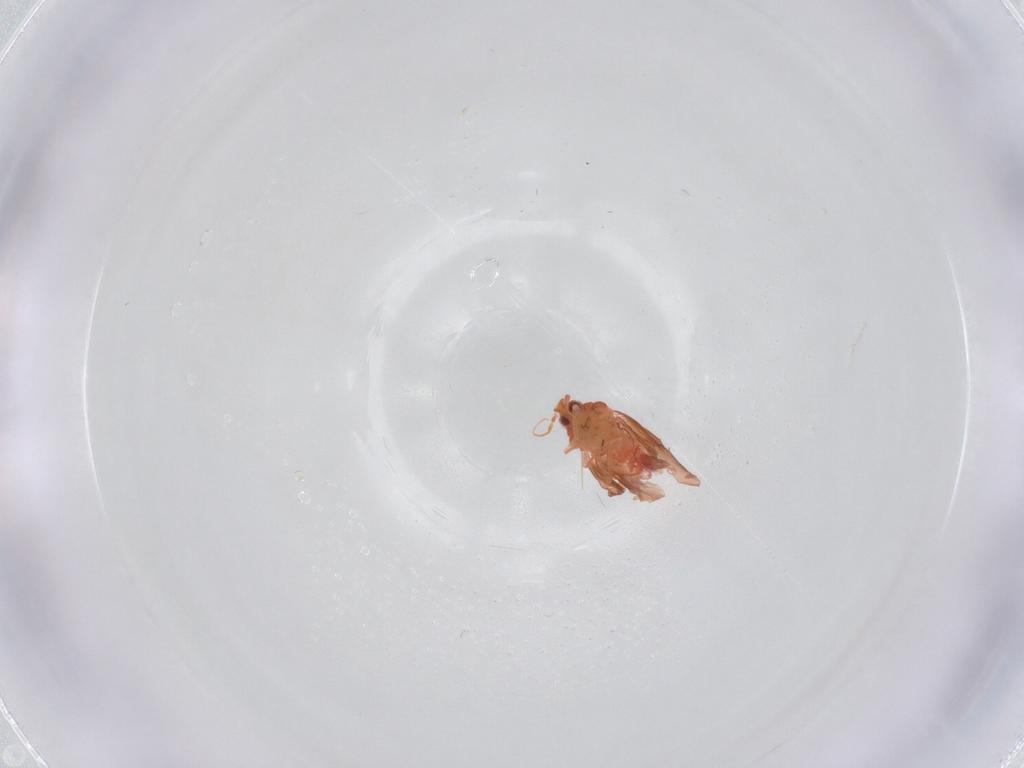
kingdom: Animalia
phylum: Arthropoda
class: Insecta
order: Hemiptera
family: Aleyrodidae
